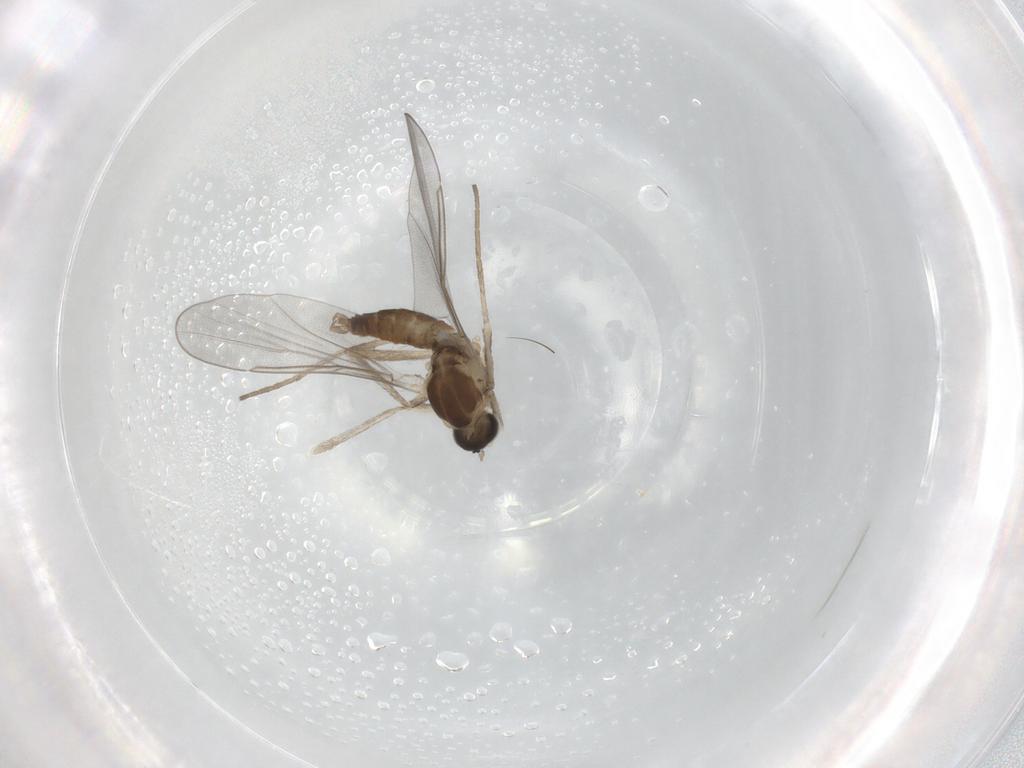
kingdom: Animalia
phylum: Arthropoda
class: Insecta
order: Diptera
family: Cecidomyiidae
